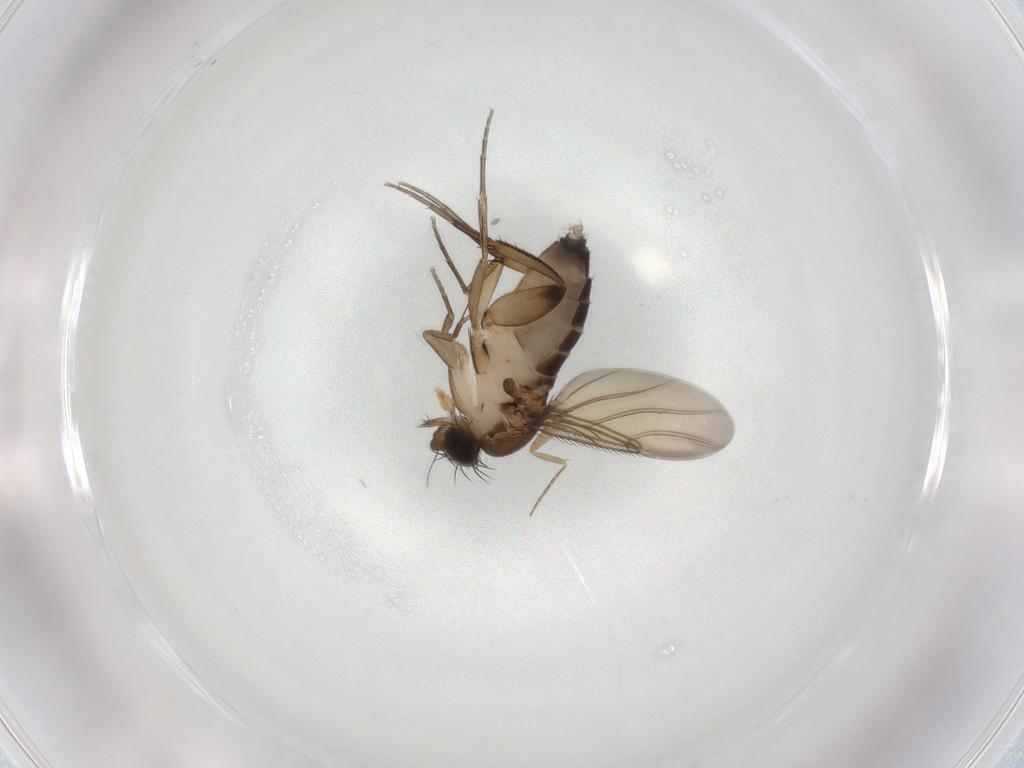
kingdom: Animalia
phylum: Arthropoda
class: Insecta
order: Diptera
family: Phoridae
